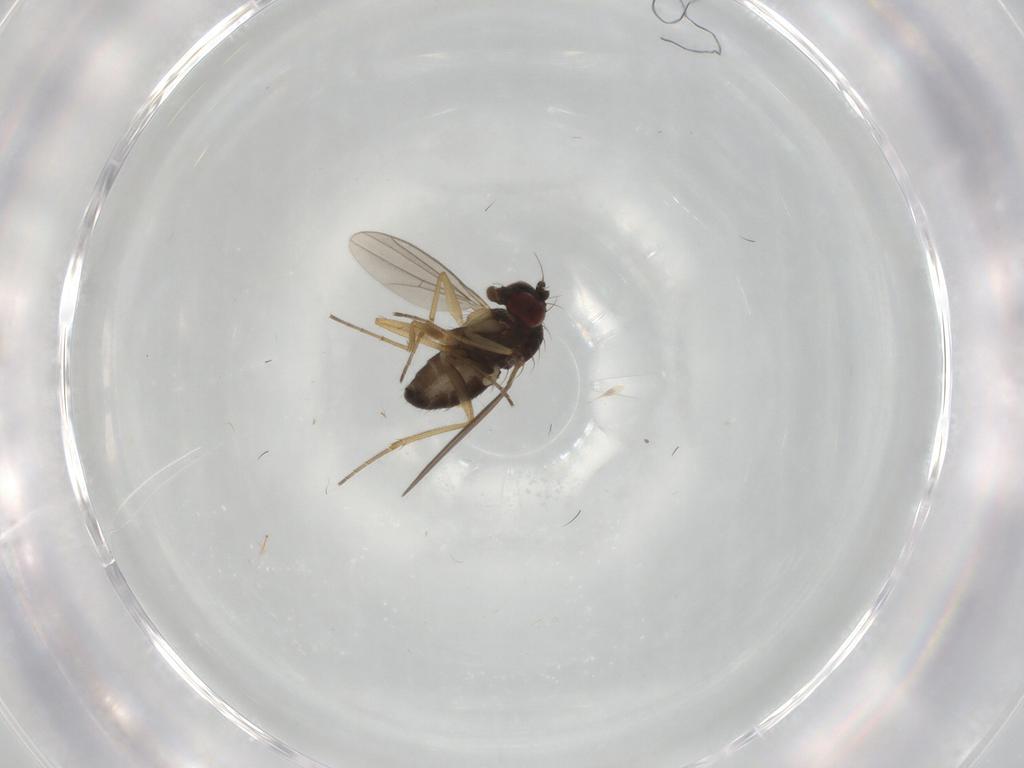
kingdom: Animalia
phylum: Arthropoda
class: Insecta
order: Diptera
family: Dolichopodidae
